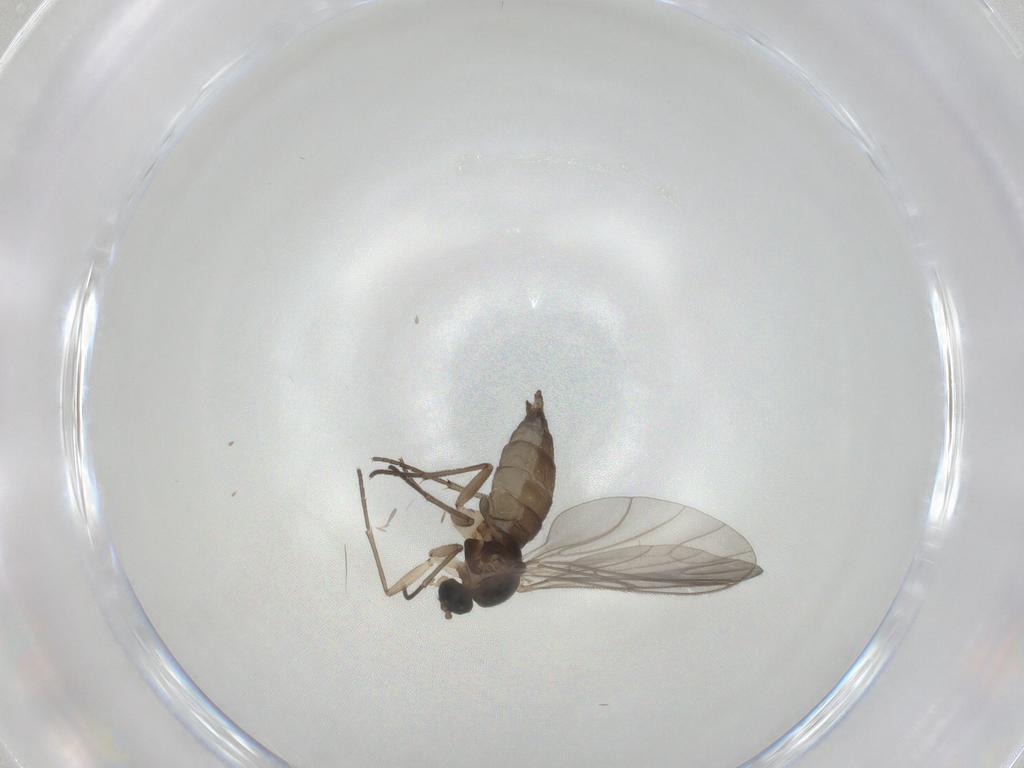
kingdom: Animalia
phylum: Arthropoda
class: Insecta
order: Diptera
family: Sciaridae
